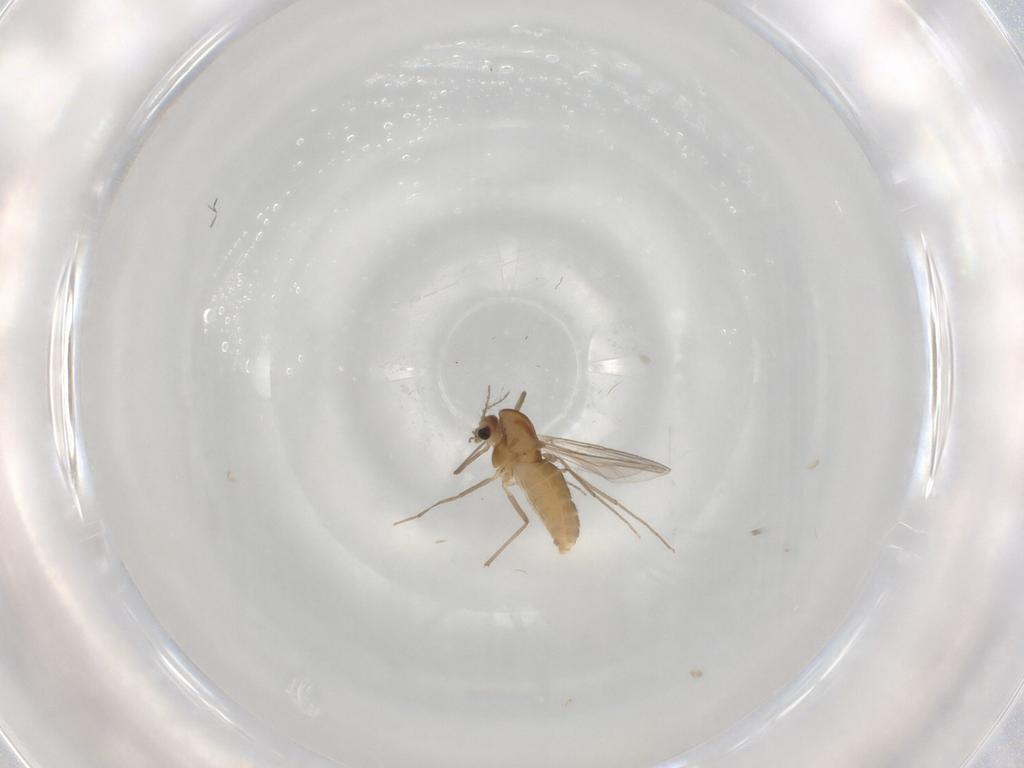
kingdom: Animalia
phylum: Arthropoda
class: Insecta
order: Diptera
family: Chironomidae
